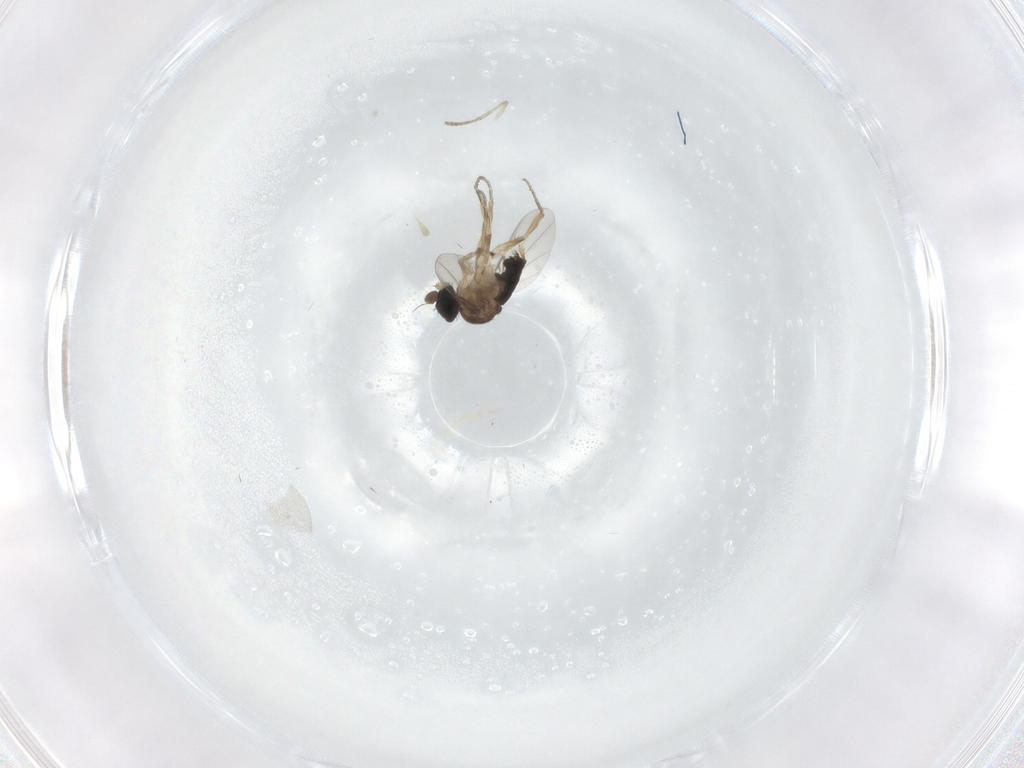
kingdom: Animalia
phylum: Arthropoda
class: Insecta
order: Diptera
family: Phoridae
